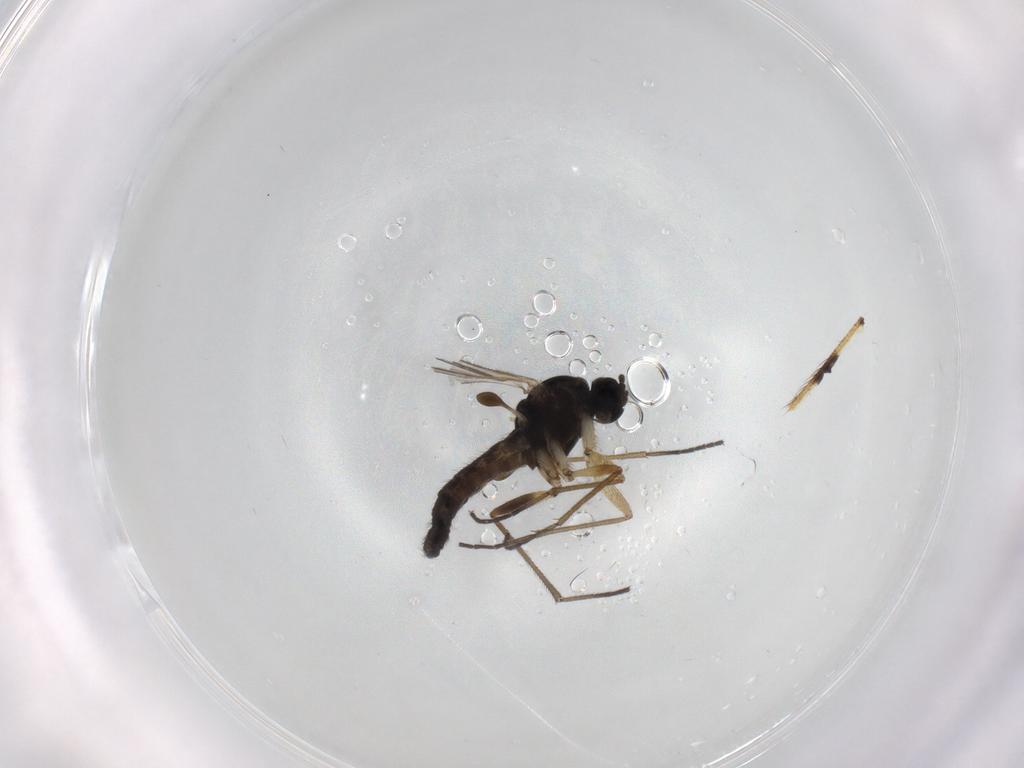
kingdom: Animalia
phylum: Arthropoda
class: Insecta
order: Diptera
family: Sciaridae
